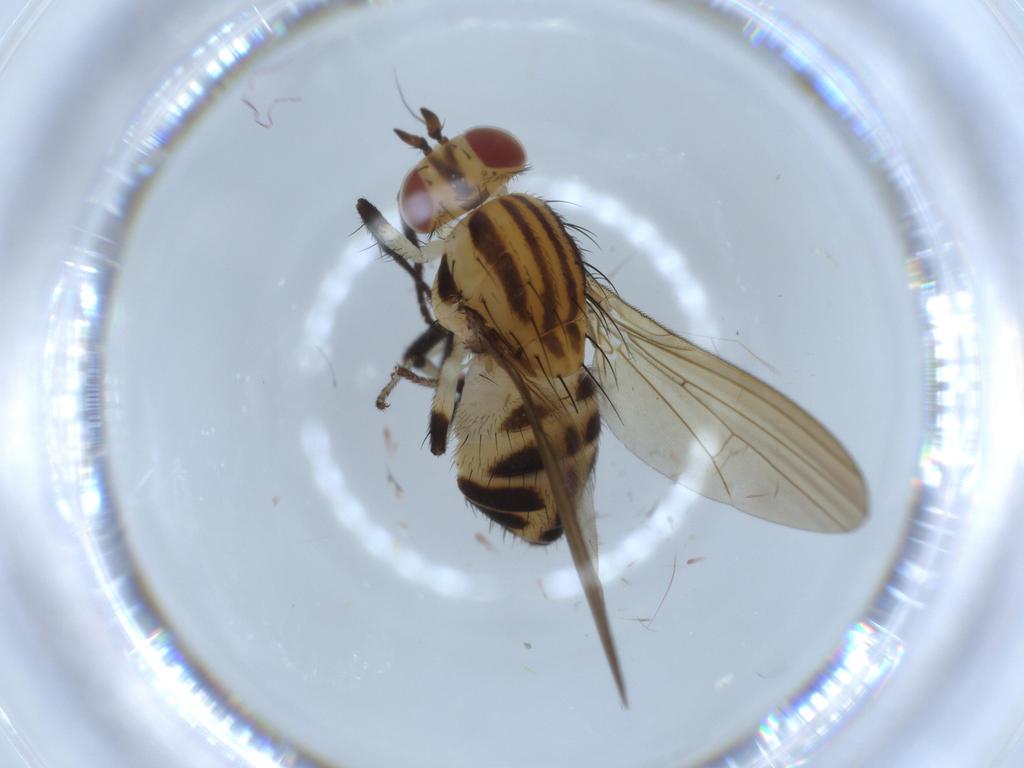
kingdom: Animalia
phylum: Arthropoda
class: Insecta
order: Diptera
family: Lauxaniidae
